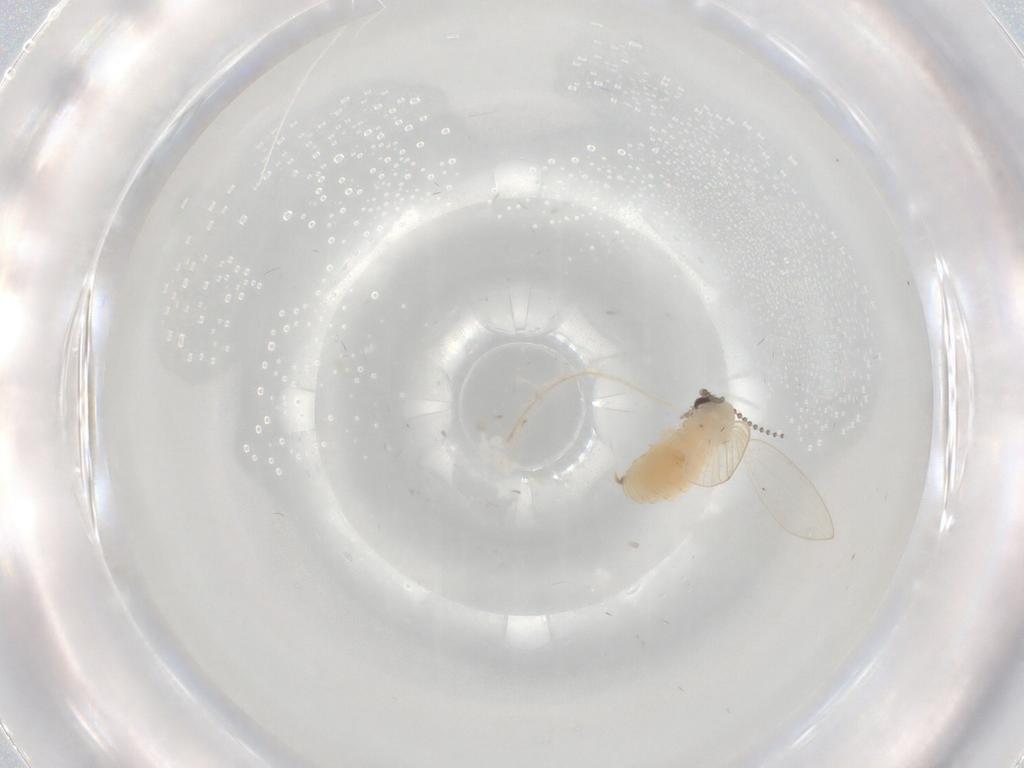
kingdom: Animalia
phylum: Arthropoda
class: Insecta
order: Diptera
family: Psychodidae
